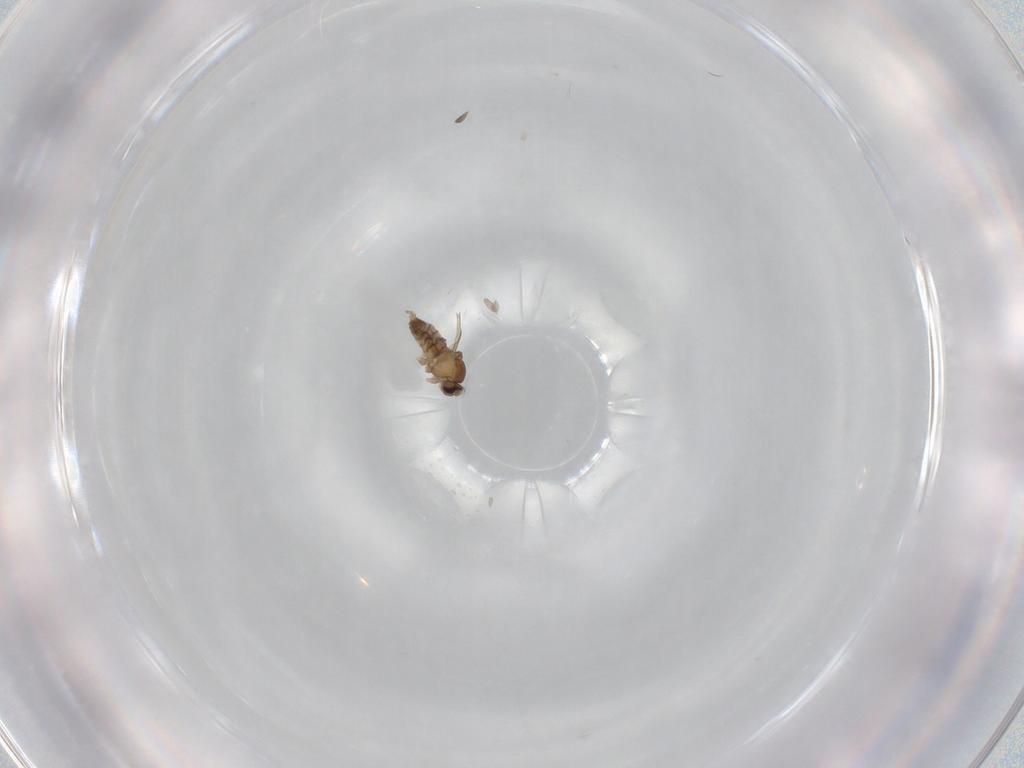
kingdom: Animalia
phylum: Arthropoda
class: Insecta
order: Diptera
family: Cecidomyiidae
